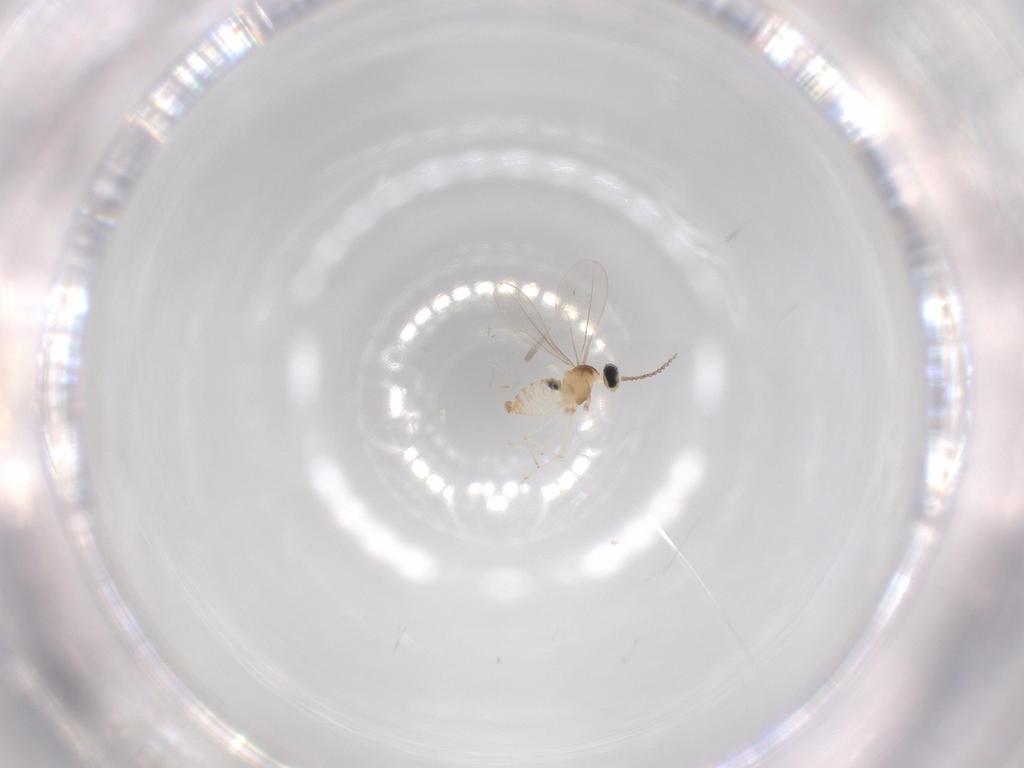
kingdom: Animalia
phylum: Arthropoda
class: Insecta
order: Diptera
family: Cecidomyiidae
